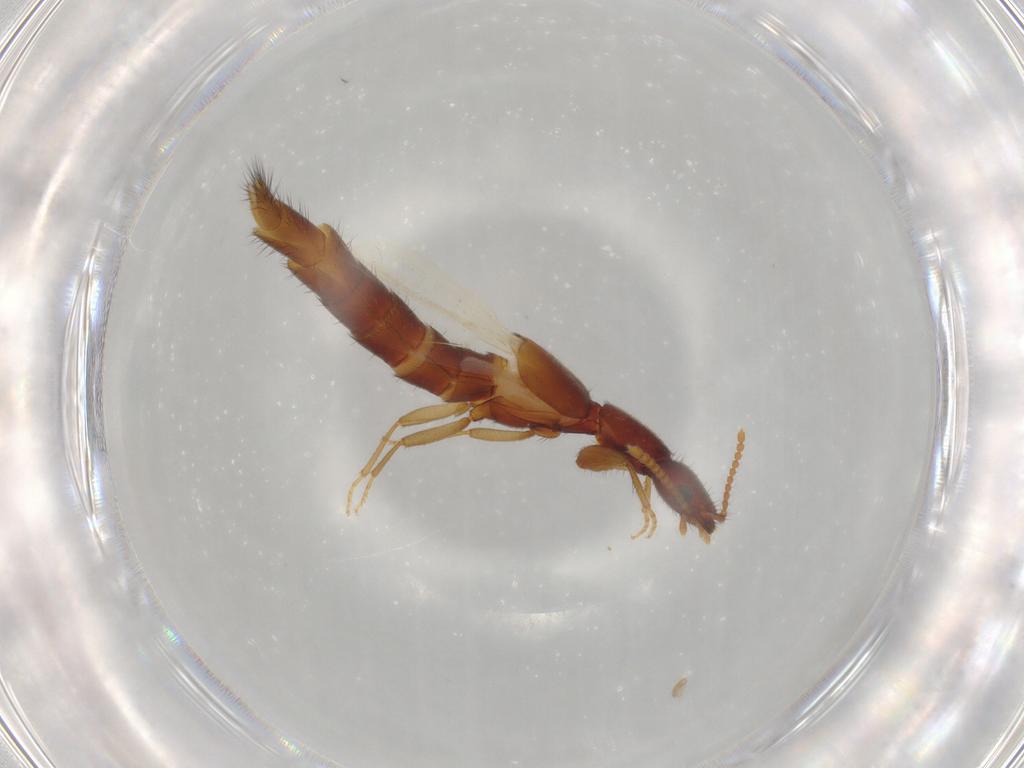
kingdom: Animalia
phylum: Arthropoda
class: Insecta
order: Coleoptera
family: Staphylinidae
